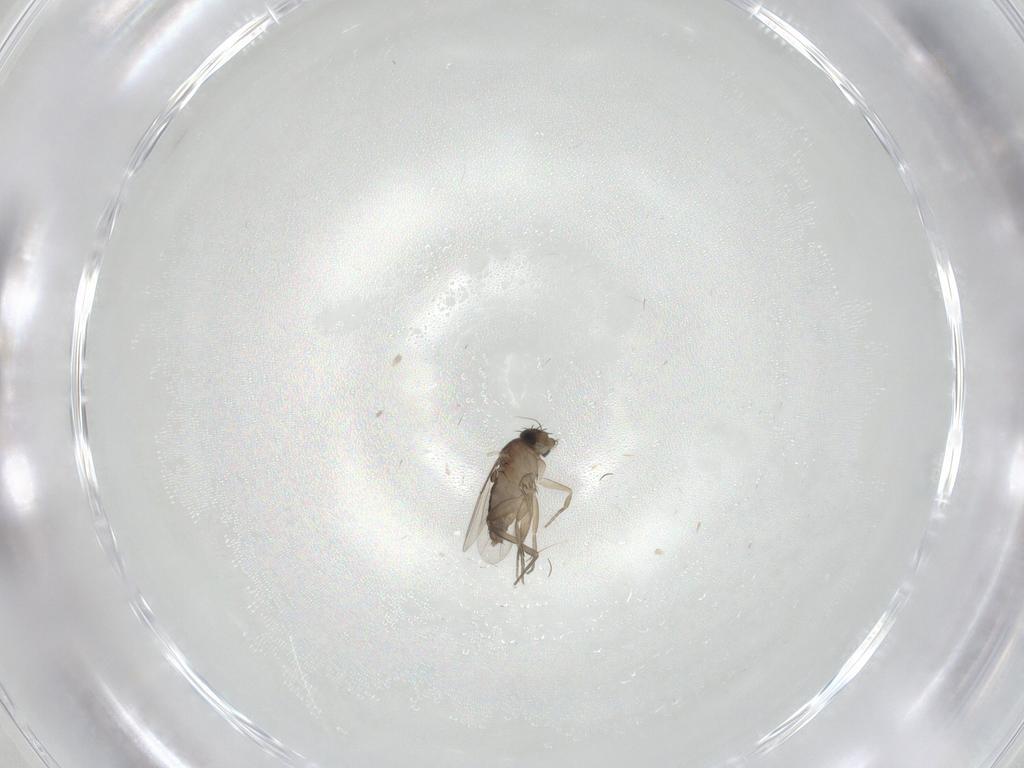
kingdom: Animalia
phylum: Arthropoda
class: Insecta
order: Diptera
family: Phoridae
